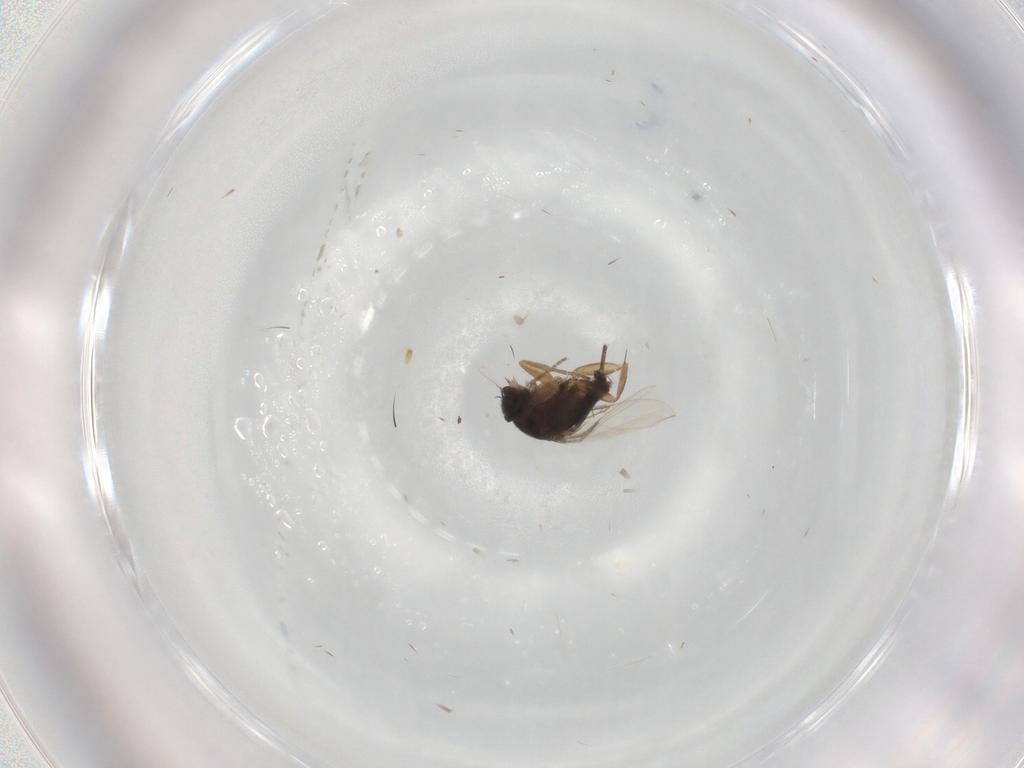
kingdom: Animalia
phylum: Arthropoda
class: Insecta
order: Diptera
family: Phoridae
